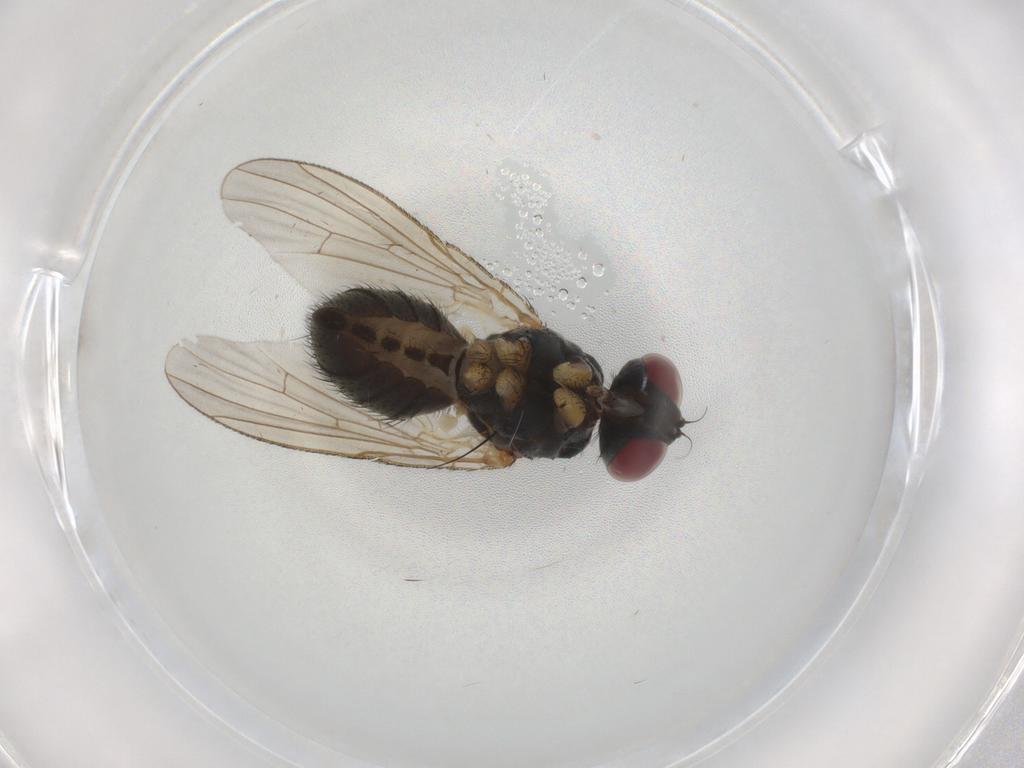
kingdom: Animalia
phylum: Arthropoda
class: Insecta
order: Diptera
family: Muscidae
